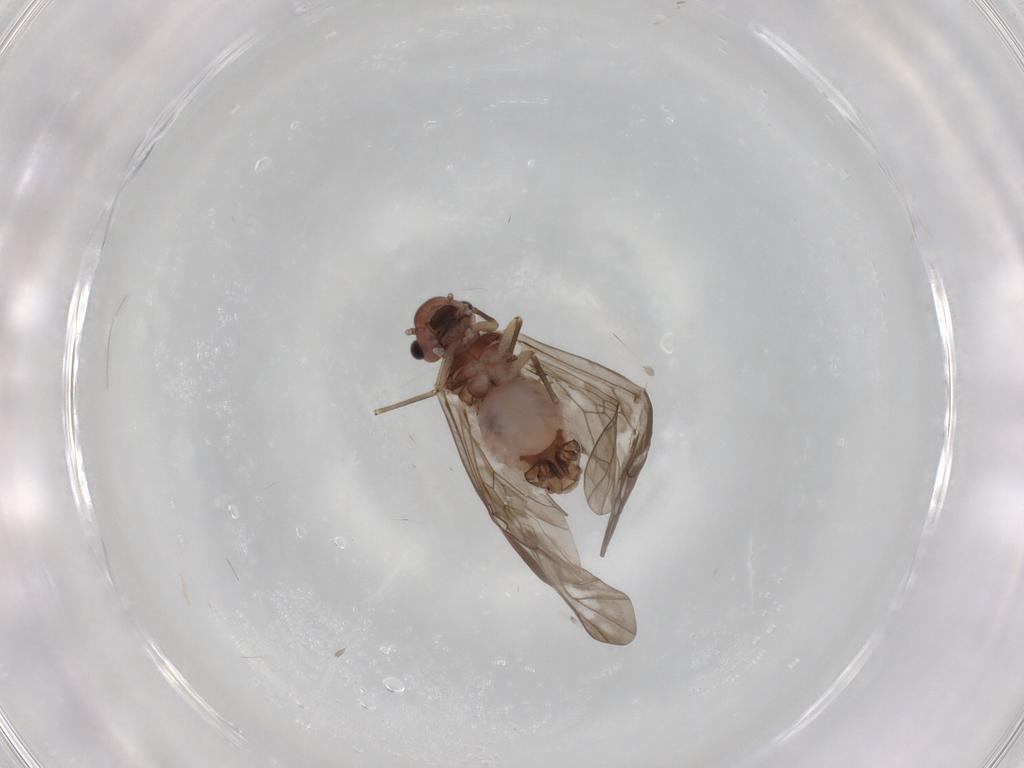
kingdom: Animalia
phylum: Arthropoda
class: Insecta
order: Psocodea
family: Peripsocidae
